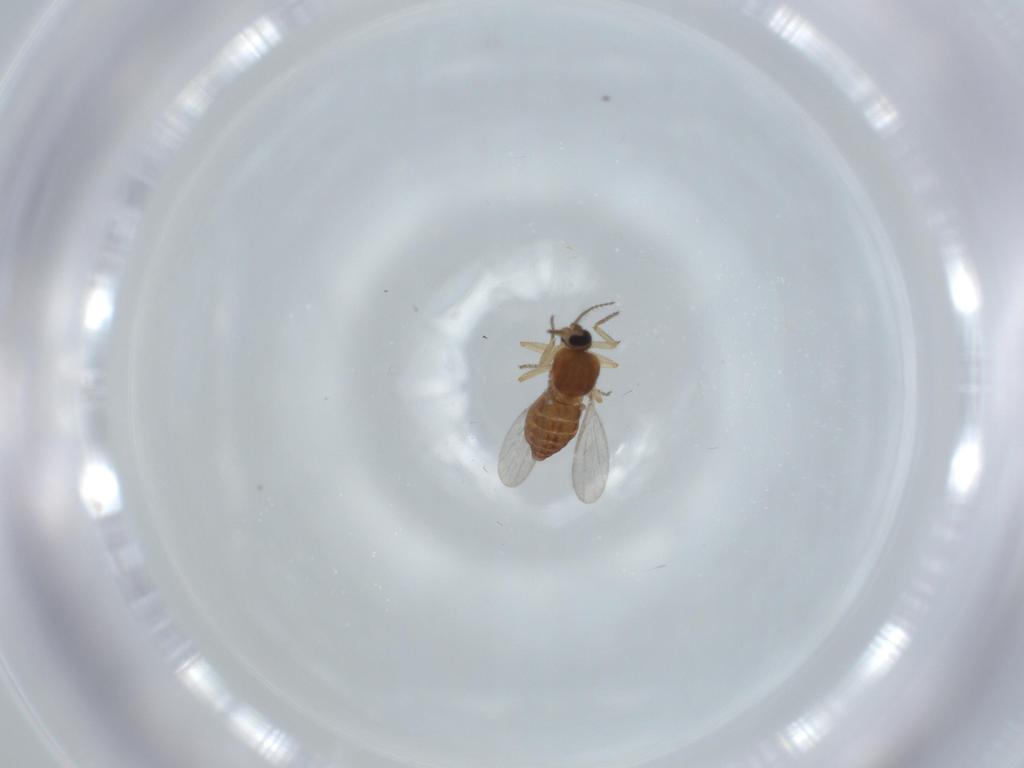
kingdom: Animalia
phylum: Arthropoda
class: Insecta
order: Diptera
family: Ceratopogonidae
